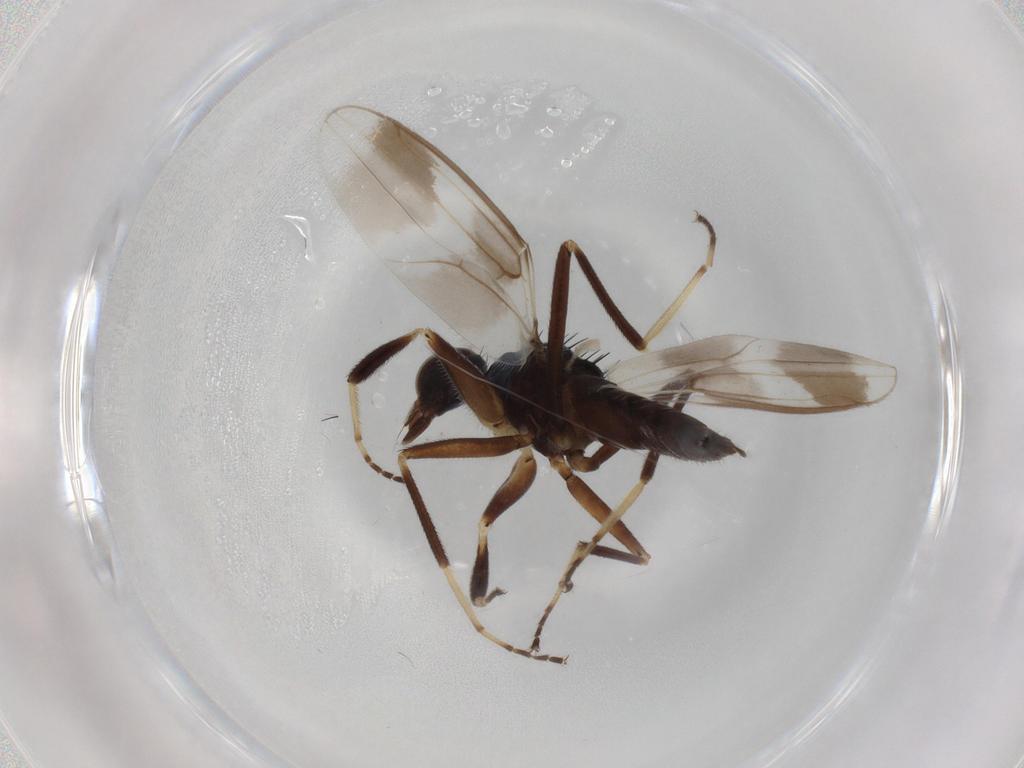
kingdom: Animalia
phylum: Arthropoda
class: Insecta
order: Diptera
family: Hybotidae
